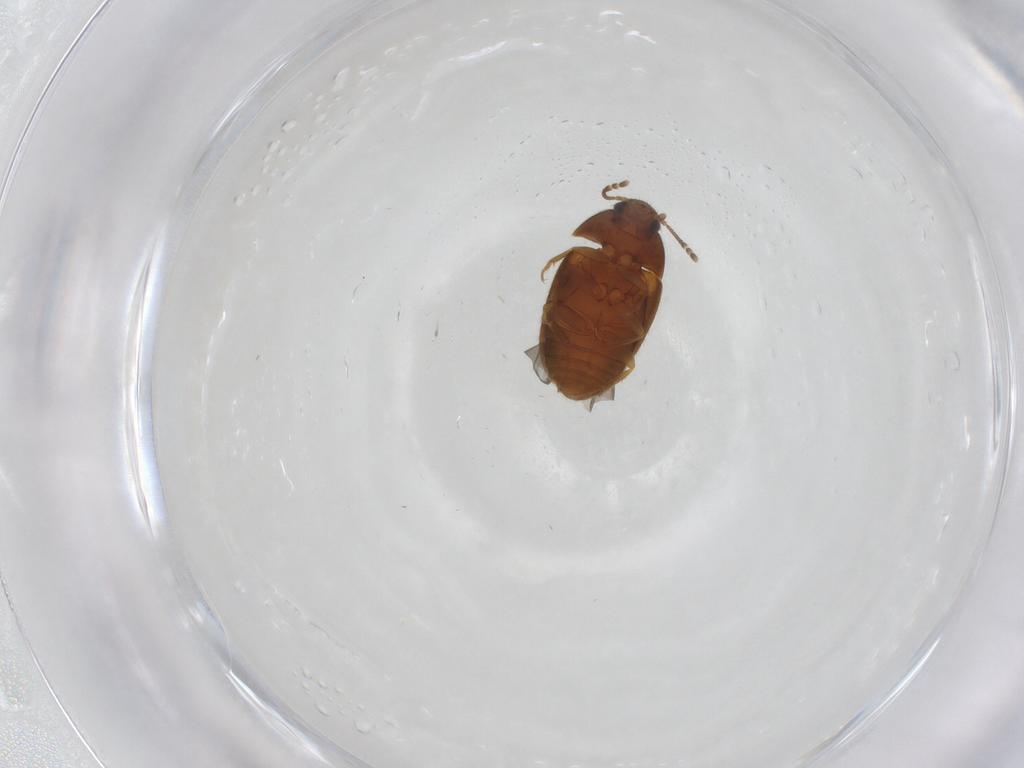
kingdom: Animalia
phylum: Arthropoda
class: Insecta
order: Coleoptera
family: Mycetophagidae
